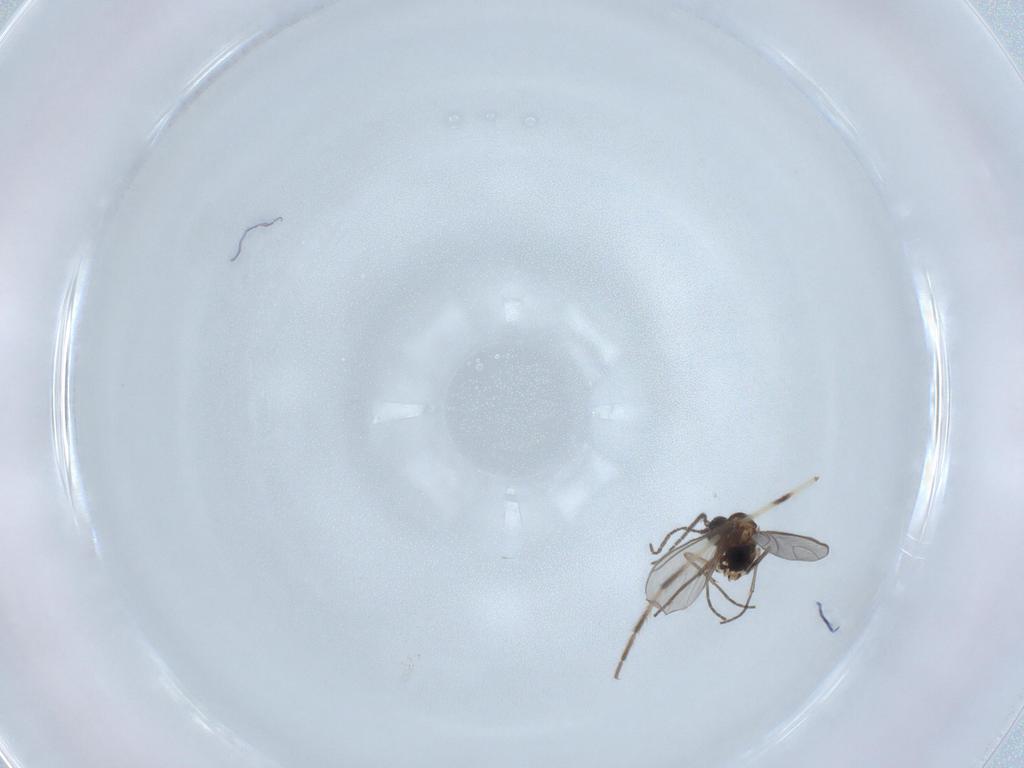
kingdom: Animalia
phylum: Arthropoda
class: Insecta
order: Diptera
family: Sciaridae
